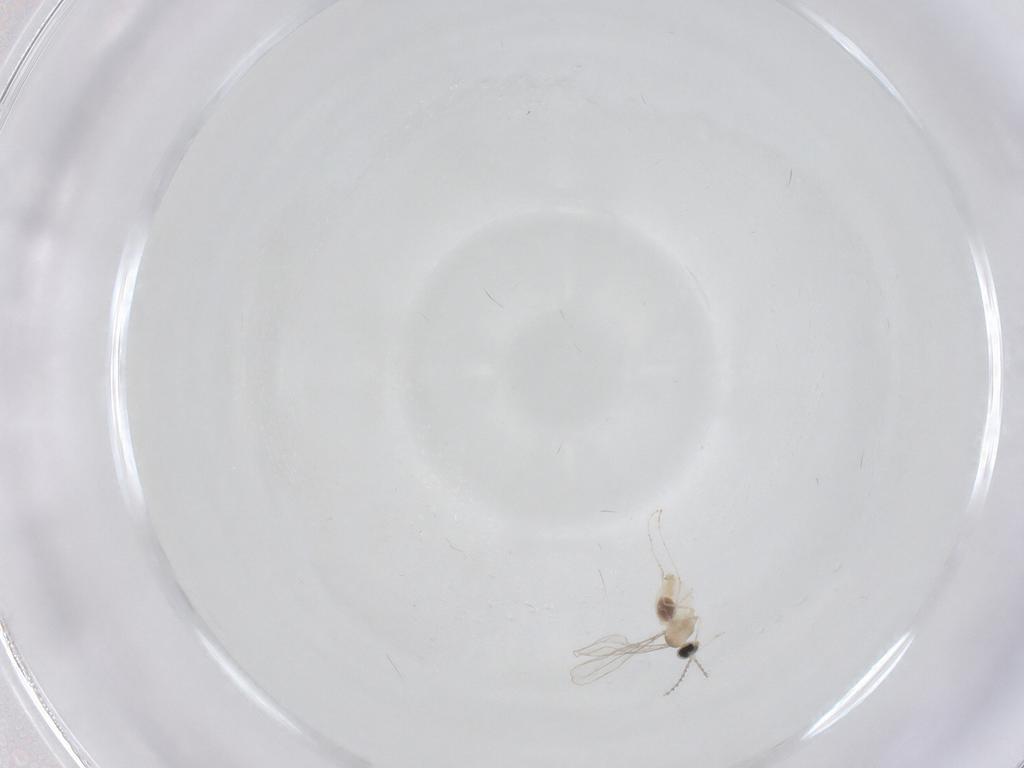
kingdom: Animalia
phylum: Arthropoda
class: Insecta
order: Diptera
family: Cecidomyiidae
